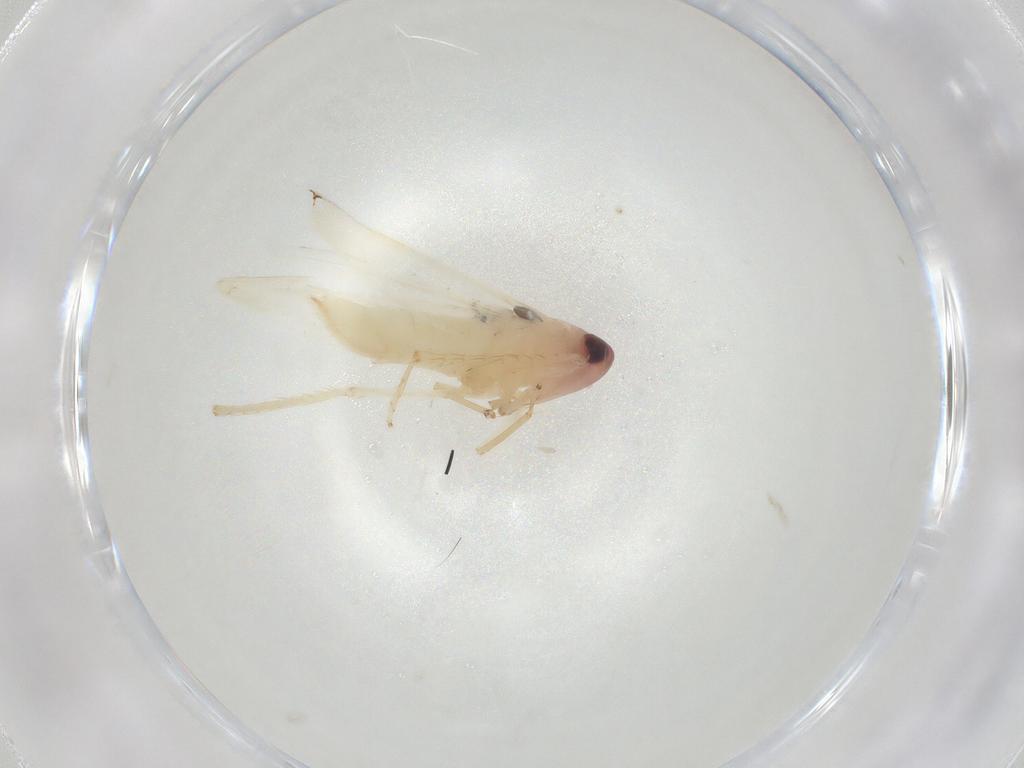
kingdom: Animalia
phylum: Arthropoda
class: Insecta
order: Hemiptera
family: Cicadellidae
